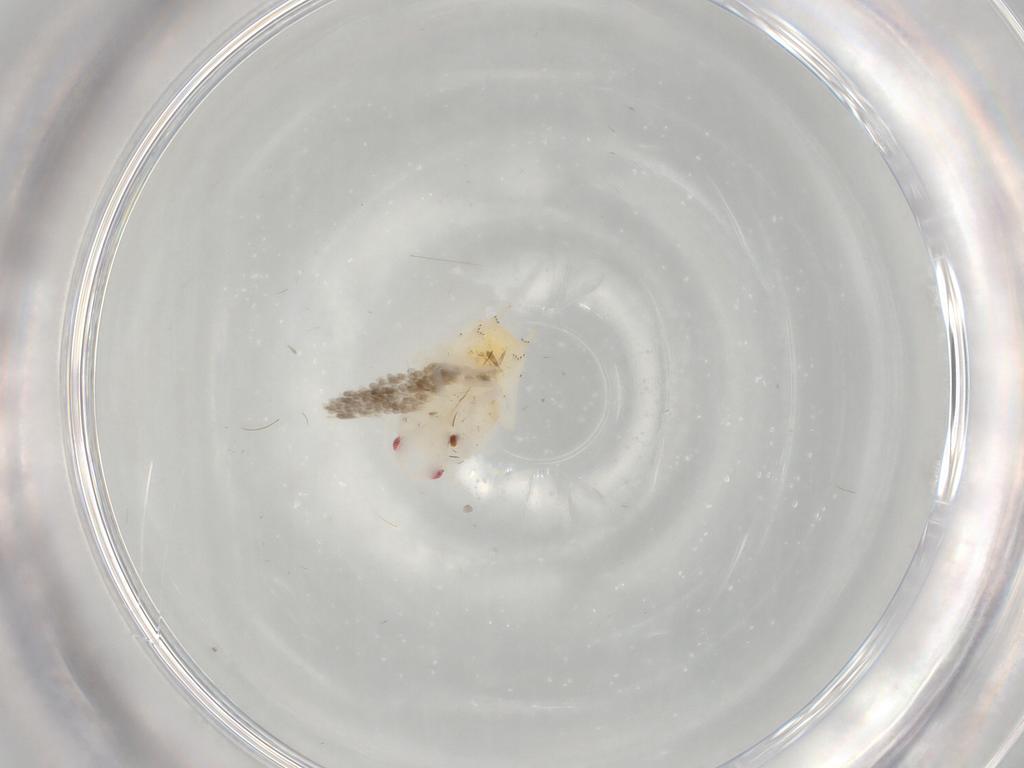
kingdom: Animalia
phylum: Arthropoda
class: Insecta
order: Hemiptera
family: Flatidae
